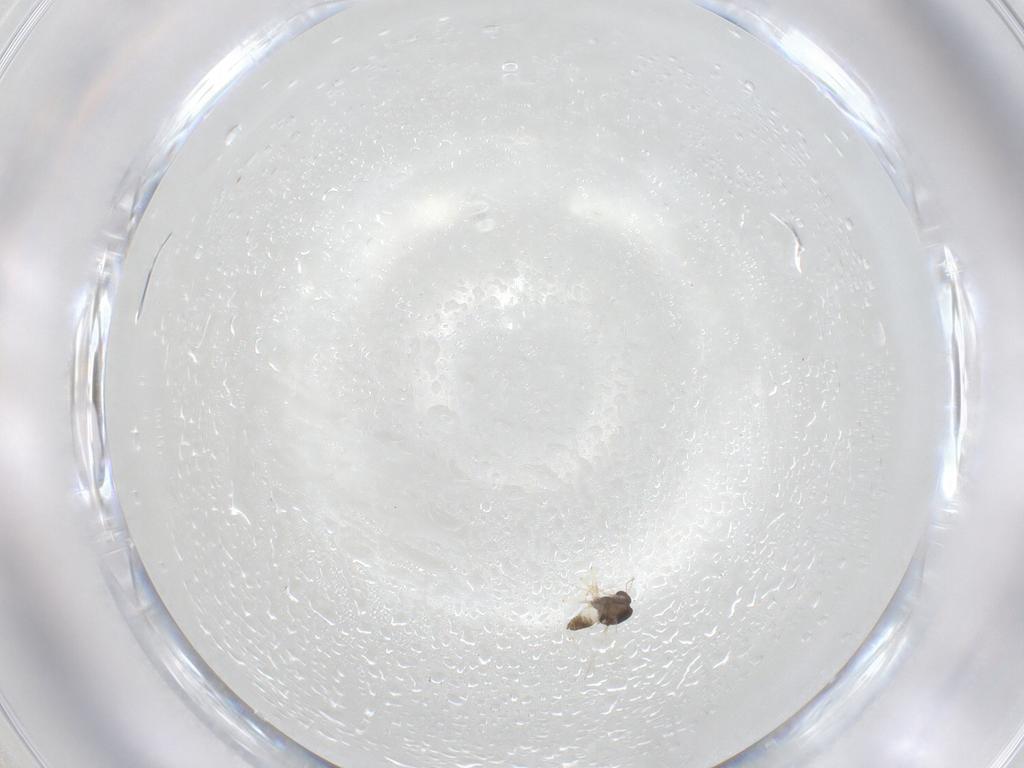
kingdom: Animalia
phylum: Arthropoda
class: Insecta
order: Diptera
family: Chironomidae
